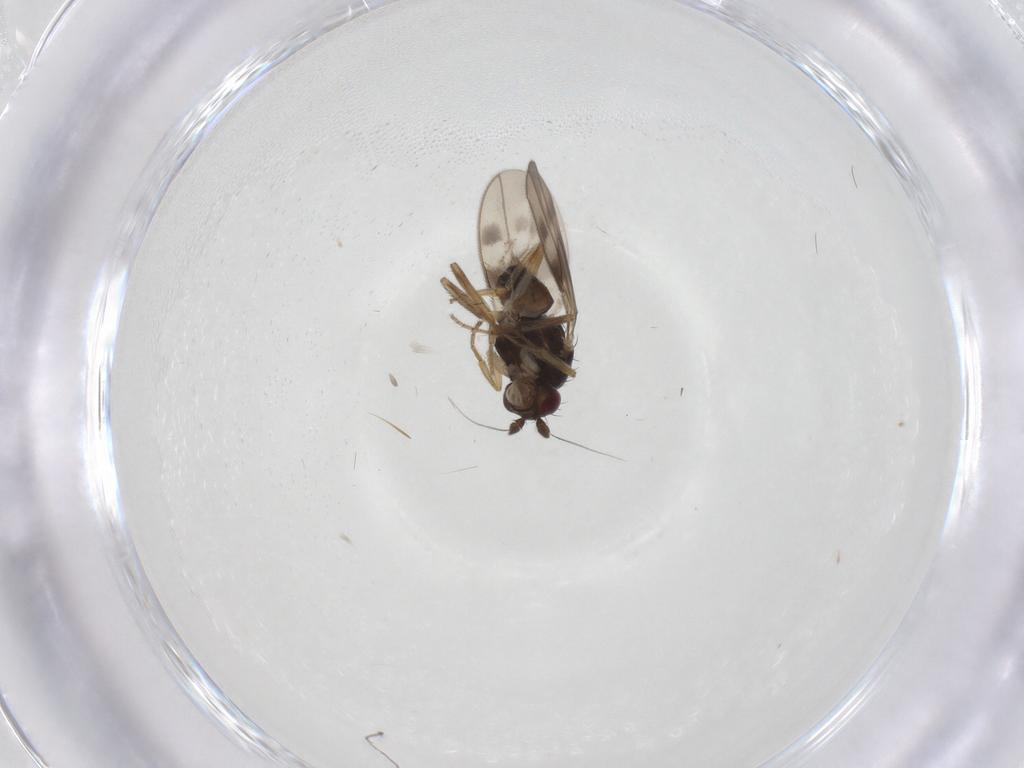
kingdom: Animalia
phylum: Arthropoda
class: Insecta
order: Diptera
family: Sphaeroceridae
